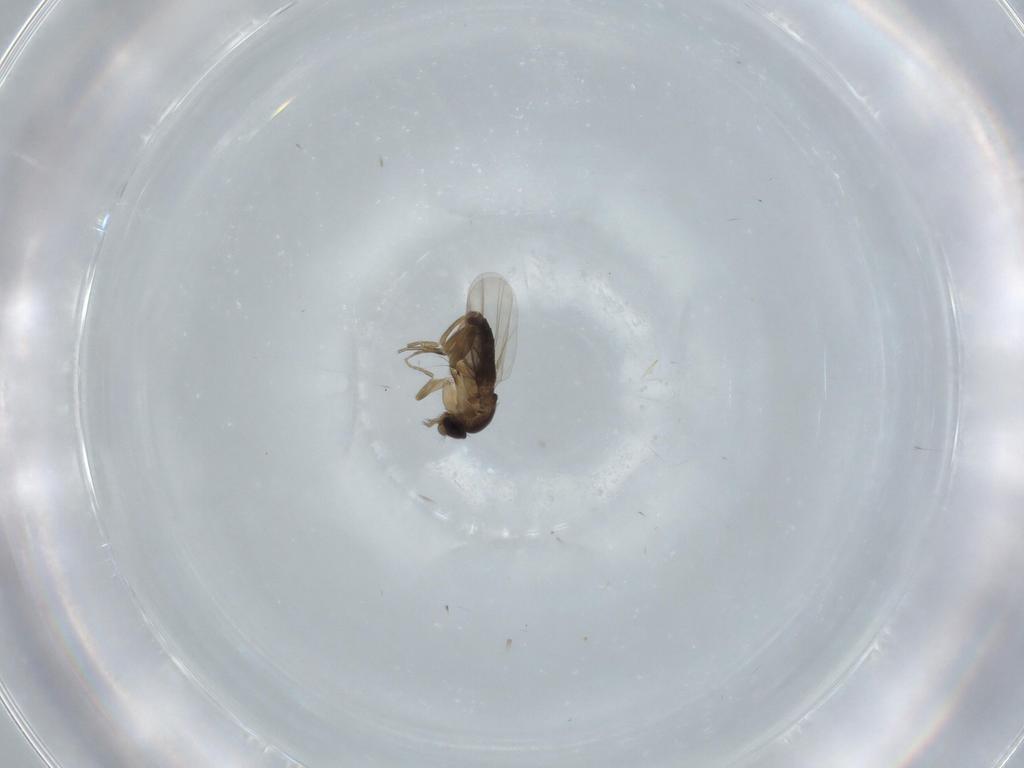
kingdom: Animalia
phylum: Arthropoda
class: Insecta
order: Diptera
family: Phoridae
